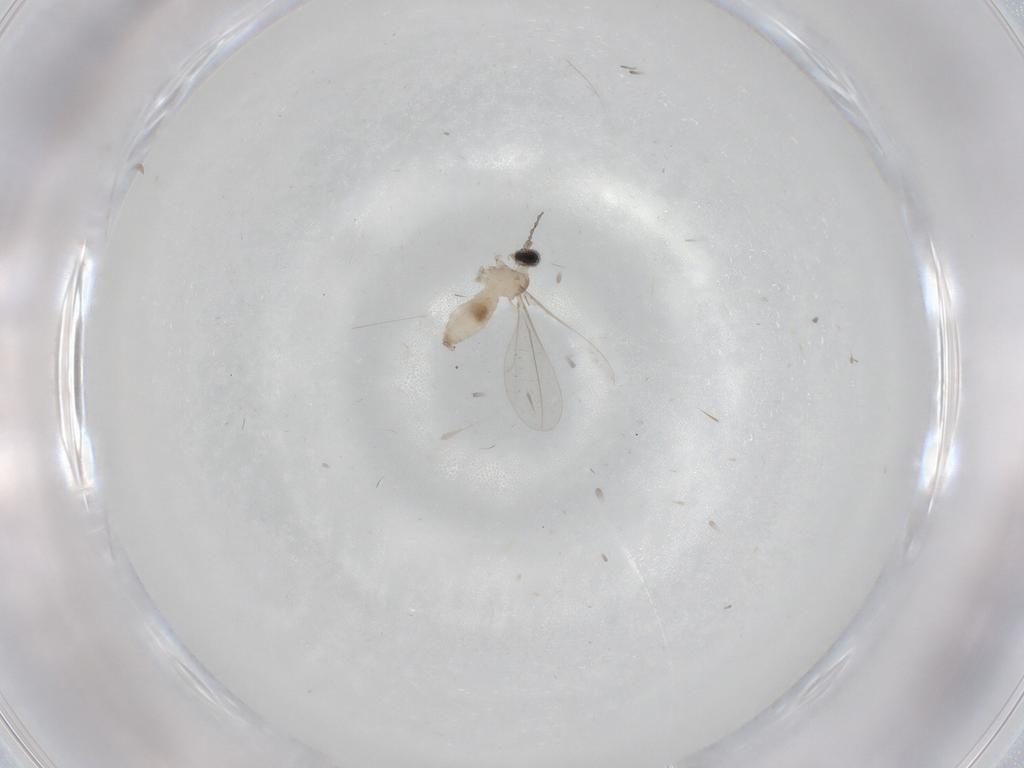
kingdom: Animalia
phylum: Arthropoda
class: Insecta
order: Diptera
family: Cecidomyiidae
